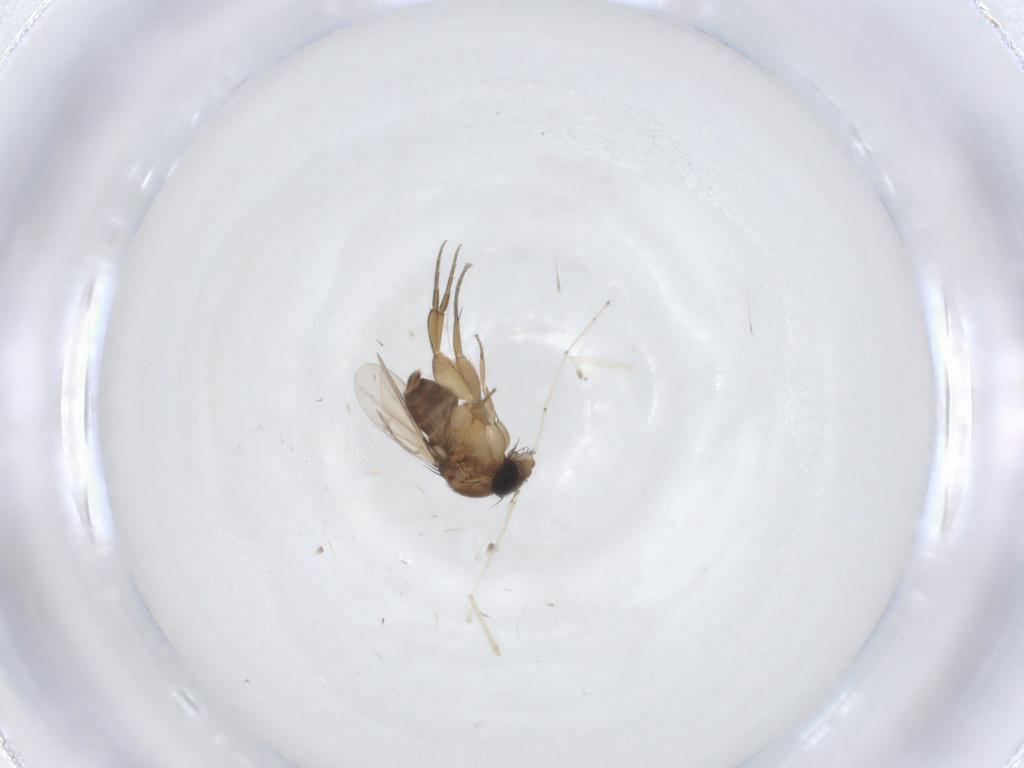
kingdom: Animalia
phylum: Arthropoda
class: Insecta
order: Diptera
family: Phoridae
